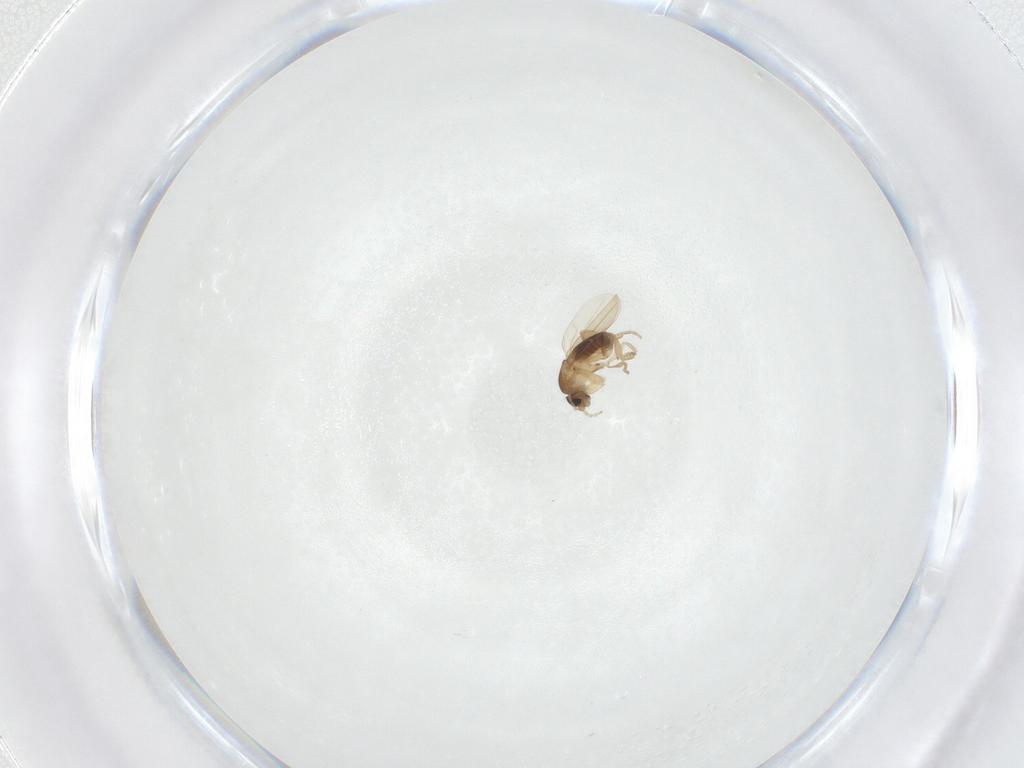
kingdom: Animalia
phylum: Arthropoda
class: Insecta
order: Diptera
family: Phoridae
